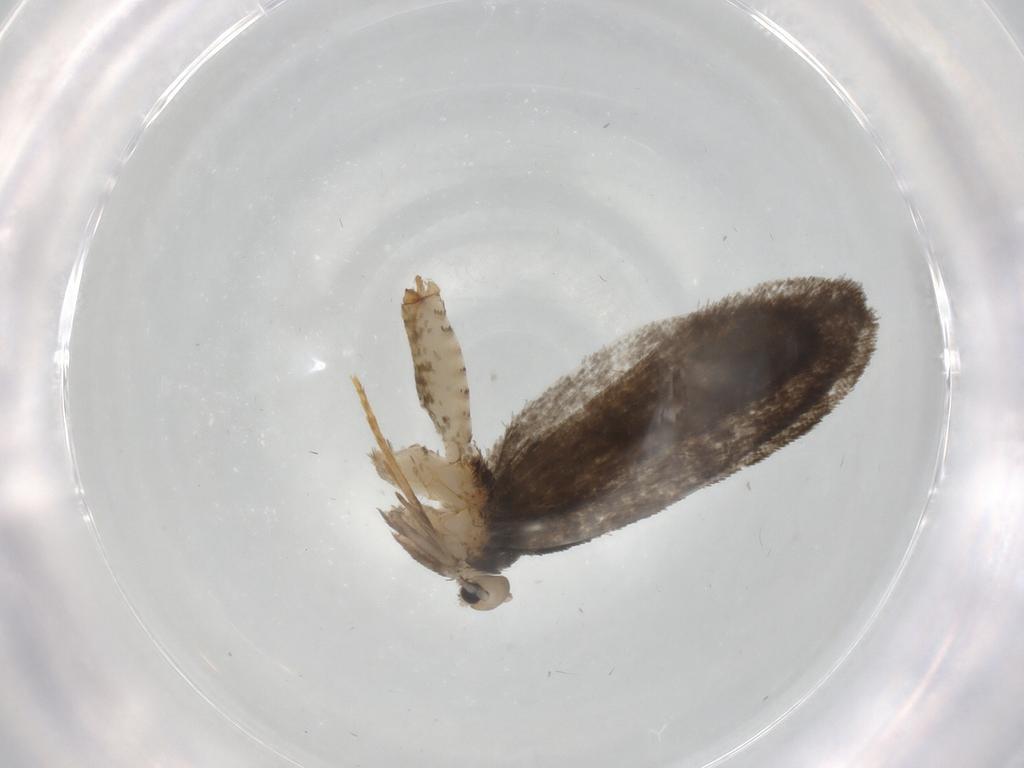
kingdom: Animalia
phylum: Arthropoda
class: Insecta
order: Lepidoptera
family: Psychidae
